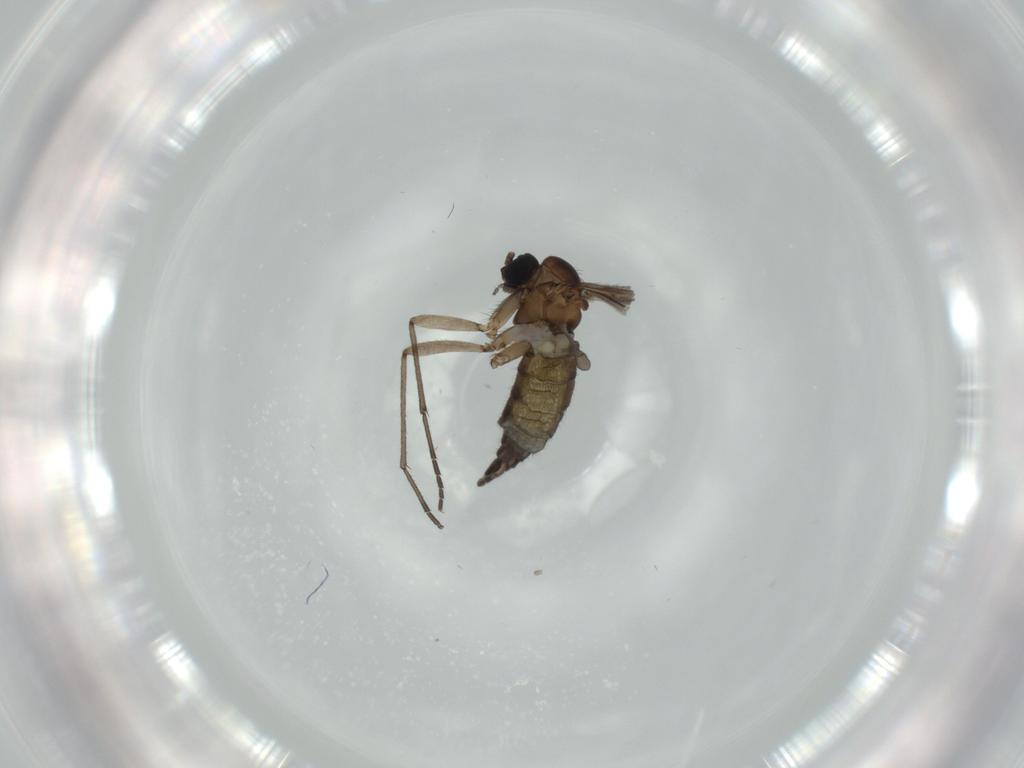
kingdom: Animalia
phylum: Arthropoda
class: Insecta
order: Diptera
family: Sciaridae
